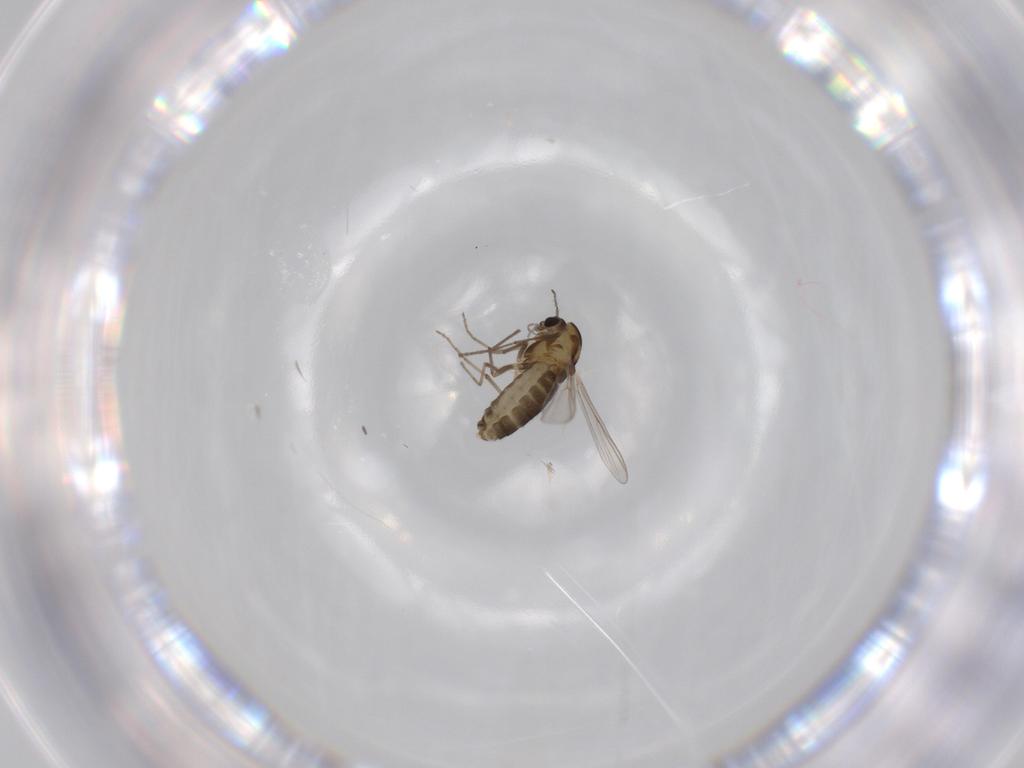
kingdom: Animalia
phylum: Arthropoda
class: Insecta
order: Diptera
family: Chironomidae
